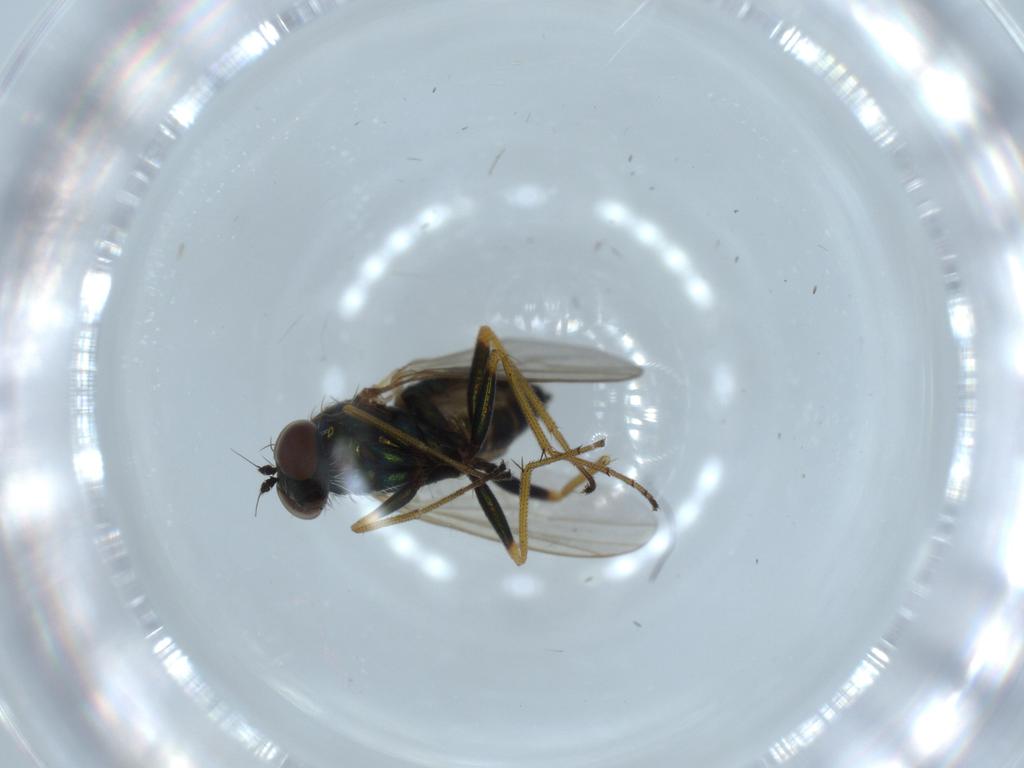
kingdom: Animalia
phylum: Arthropoda
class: Insecta
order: Diptera
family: Dolichopodidae
